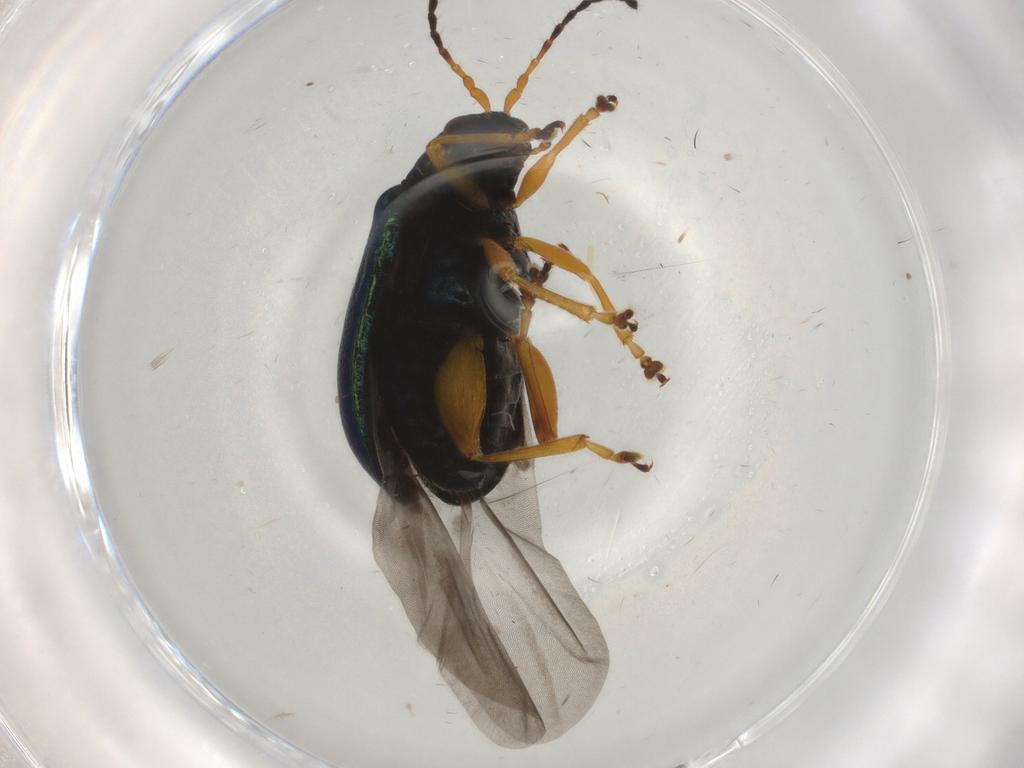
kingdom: Animalia
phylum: Arthropoda
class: Insecta
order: Coleoptera
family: Chrysomelidae
